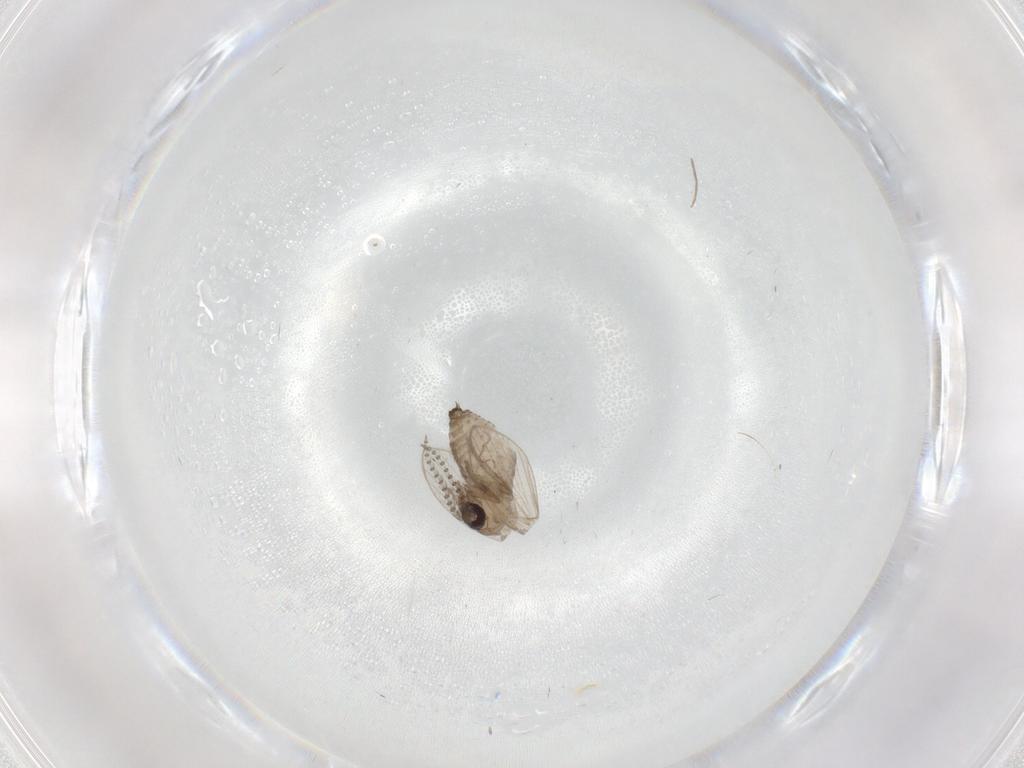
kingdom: Animalia
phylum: Arthropoda
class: Insecta
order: Diptera
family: Chironomidae
